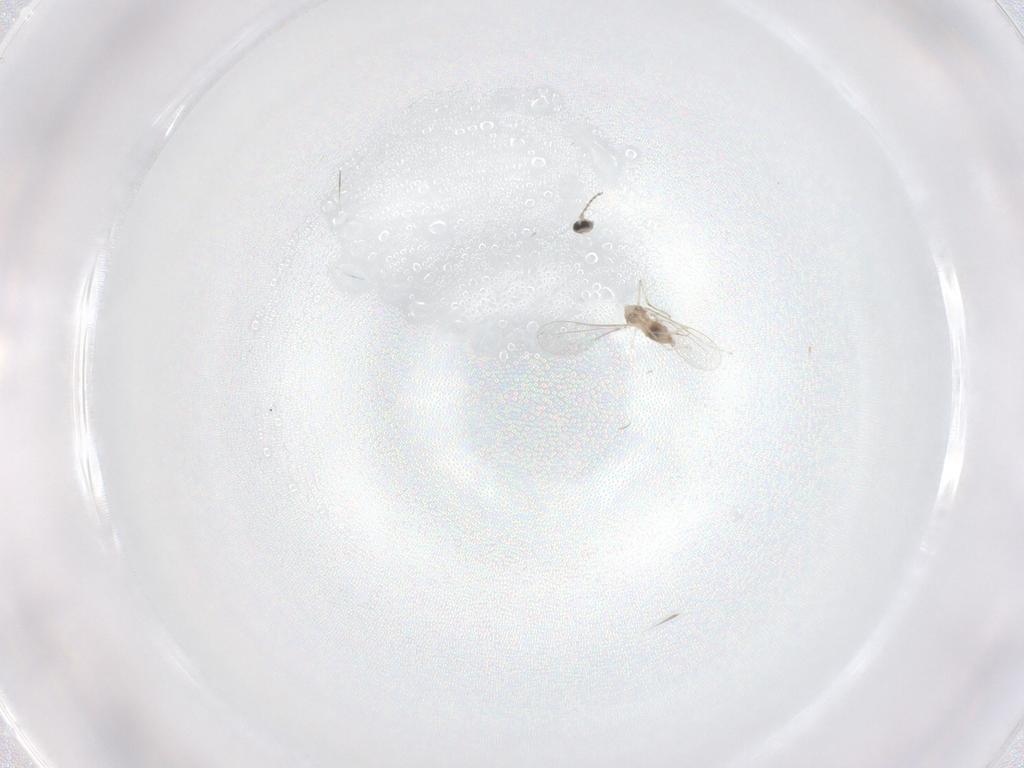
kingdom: Animalia
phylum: Arthropoda
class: Insecta
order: Diptera
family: Cecidomyiidae
